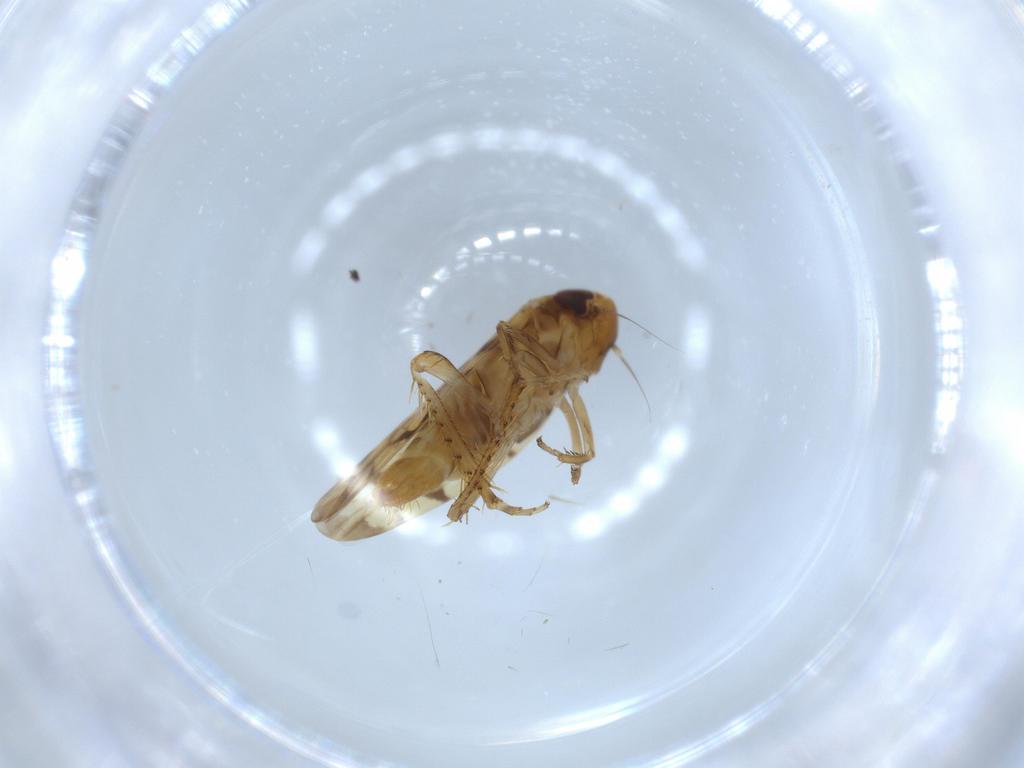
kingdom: Animalia
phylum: Arthropoda
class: Insecta
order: Hemiptera
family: Cicadellidae
